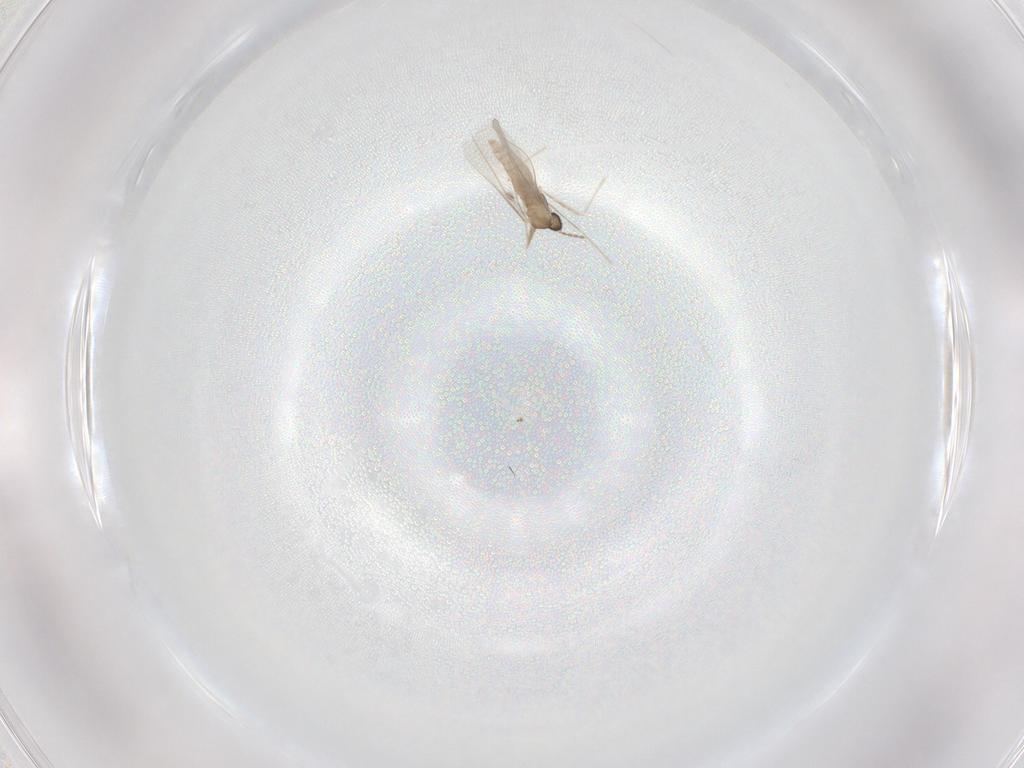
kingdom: Animalia
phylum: Arthropoda
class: Insecta
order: Diptera
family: Cecidomyiidae
